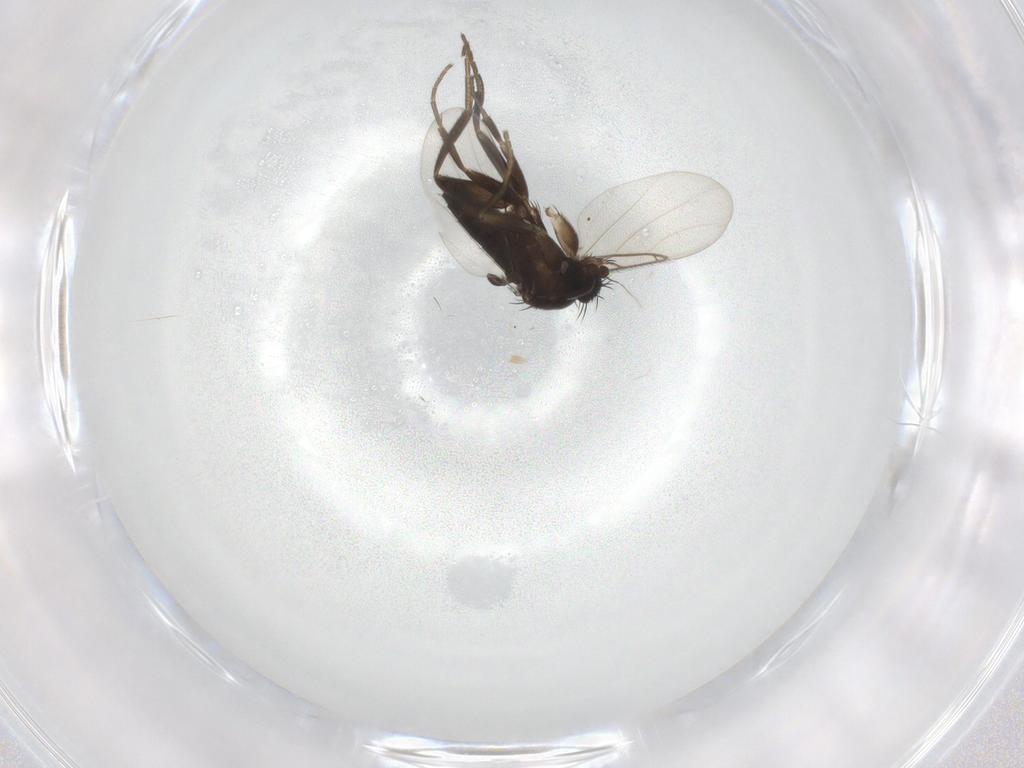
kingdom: Animalia
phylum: Arthropoda
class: Insecta
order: Diptera
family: Phoridae
